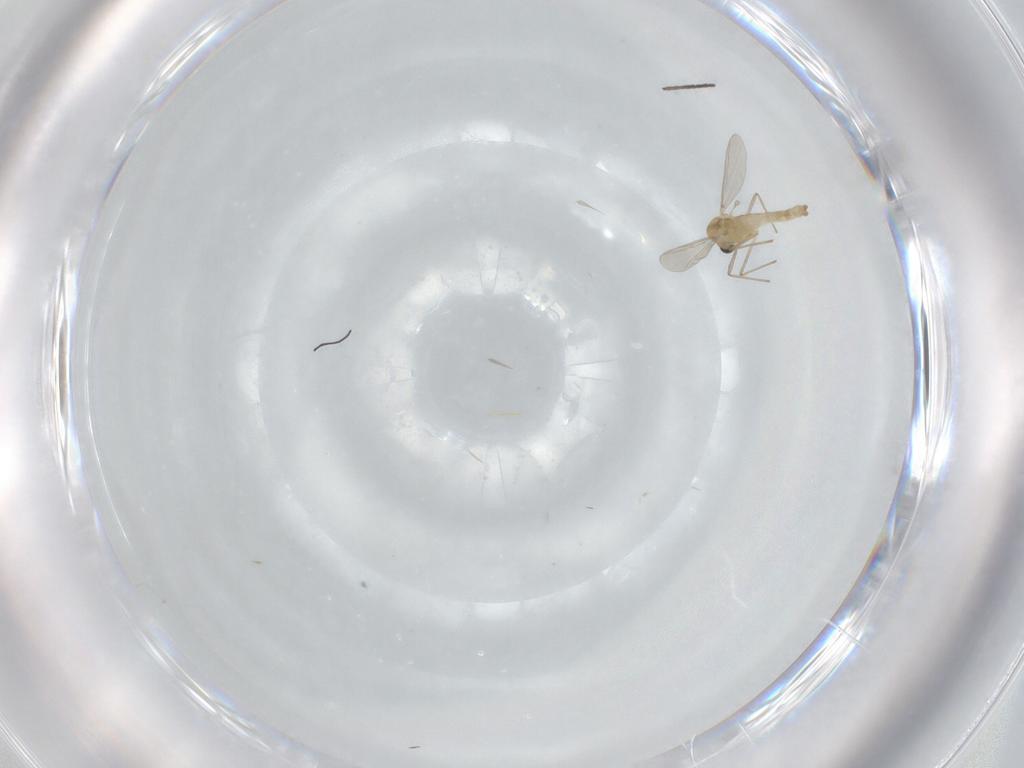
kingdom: Animalia
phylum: Arthropoda
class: Insecta
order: Diptera
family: Chironomidae
